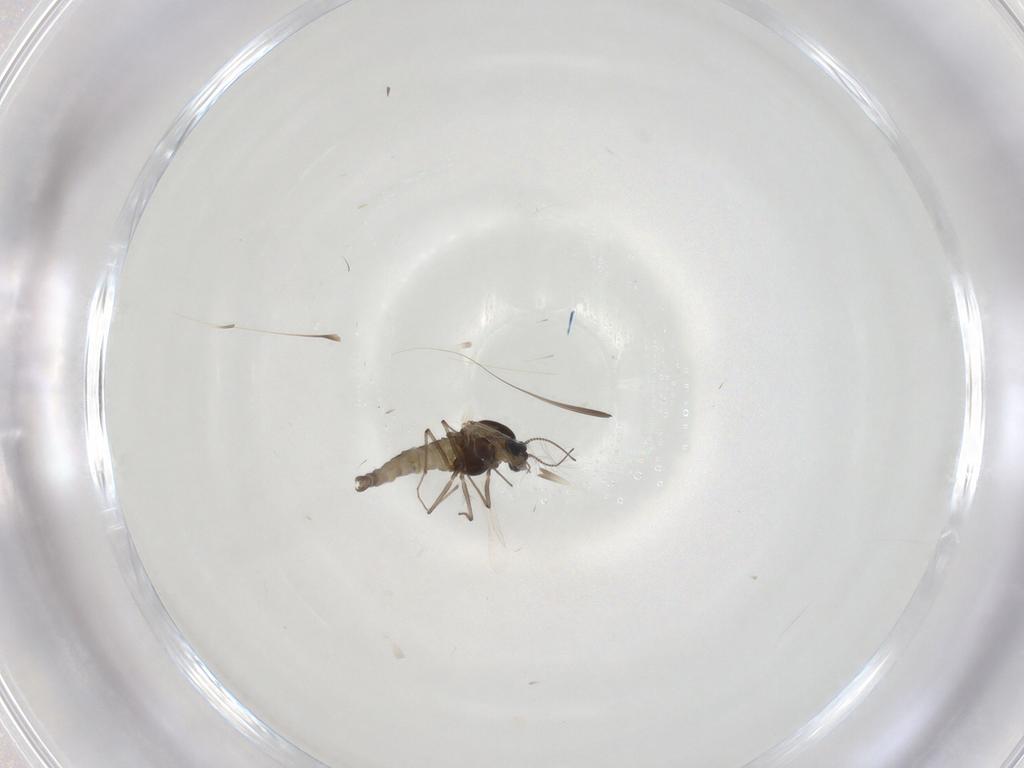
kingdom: Animalia
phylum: Arthropoda
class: Insecta
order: Diptera
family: Chironomidae
